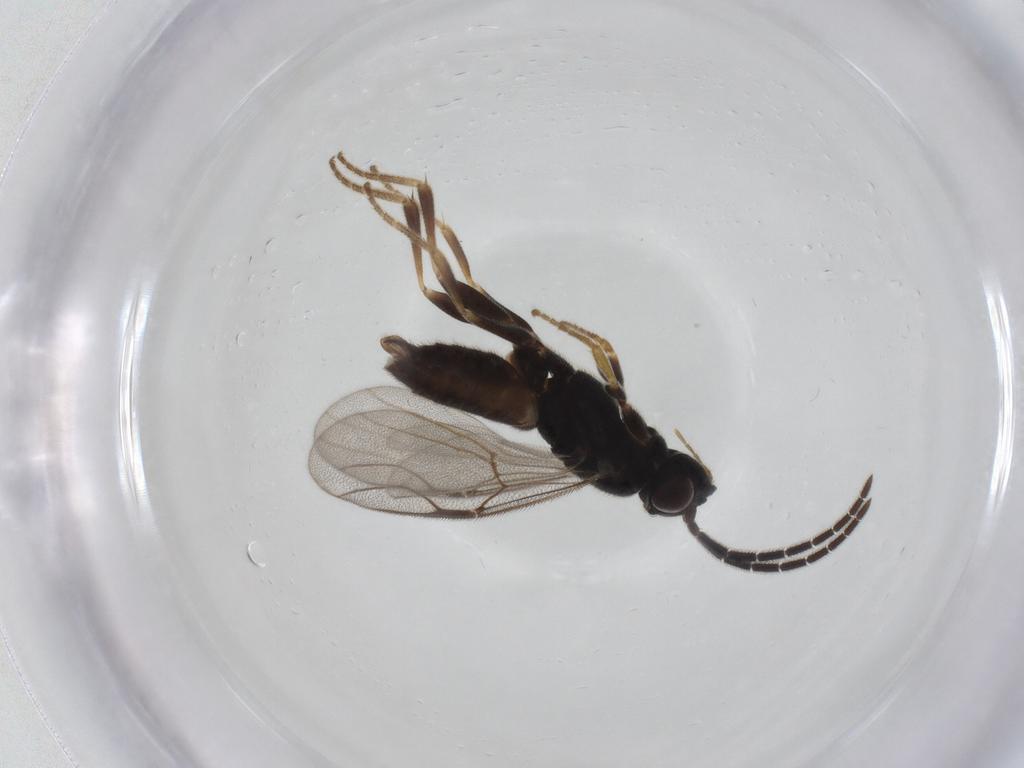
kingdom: Animalia
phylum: Arthropoda
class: Insecta
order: Hymenoptera
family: Dryinidae
